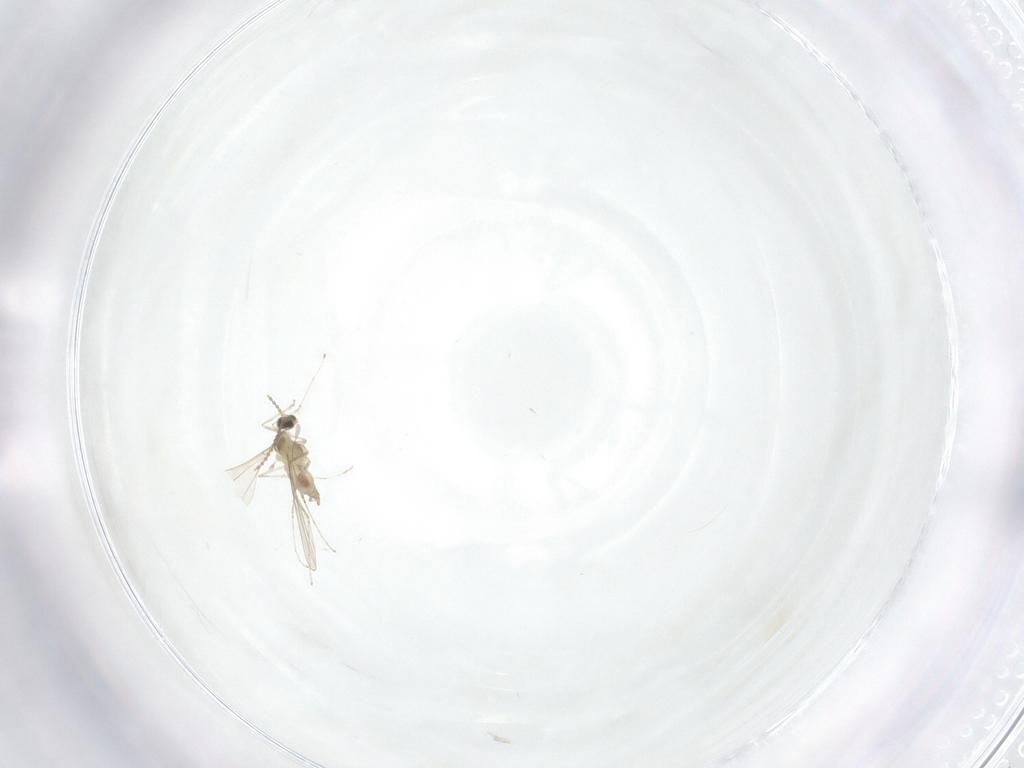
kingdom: Animalia
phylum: Arthropoda
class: Insecta
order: Diptera
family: Cecidomyiidae
